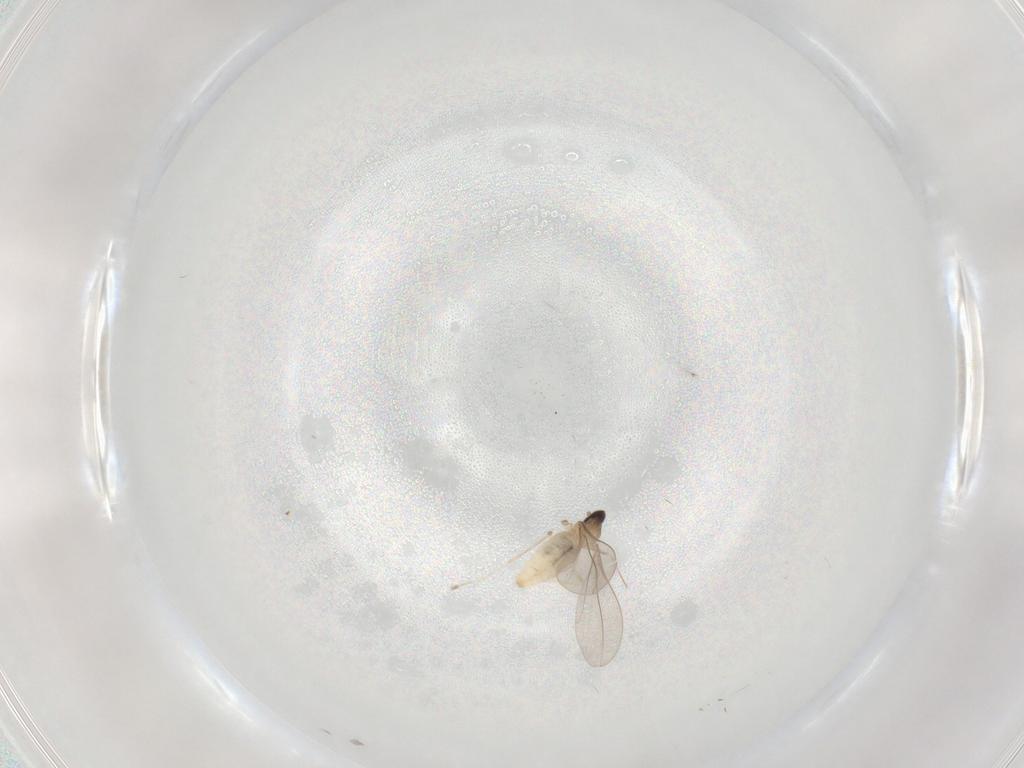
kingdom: Animalia
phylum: Arthropoda
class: Insecta
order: Diptera
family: Cecidomyiidae
